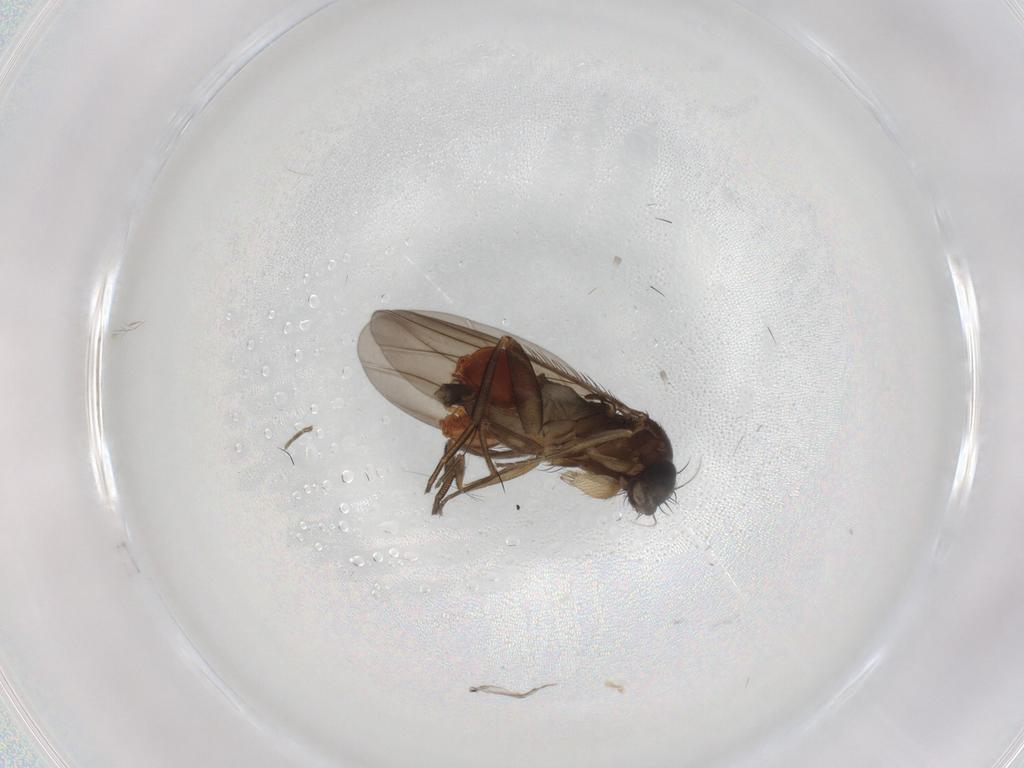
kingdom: Animalia
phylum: Arthropoda
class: Insecta
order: Diptera
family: Phoridae
